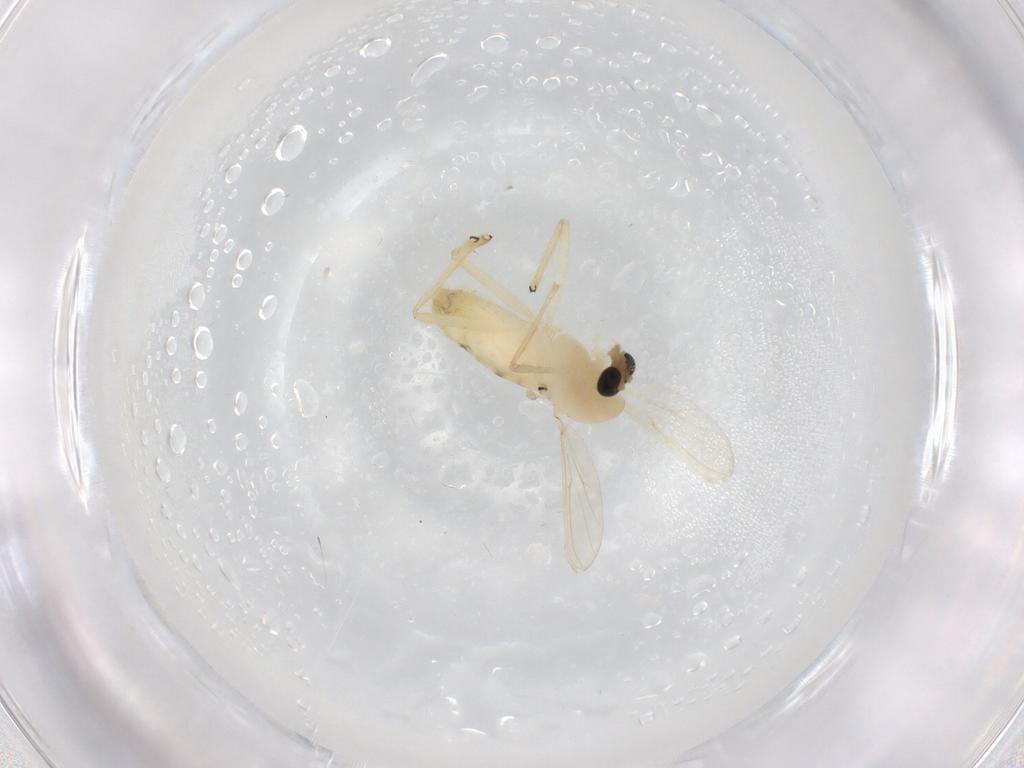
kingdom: Animalia
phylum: Arthropoda
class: Insecta
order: Diptera
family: Chironomidae
